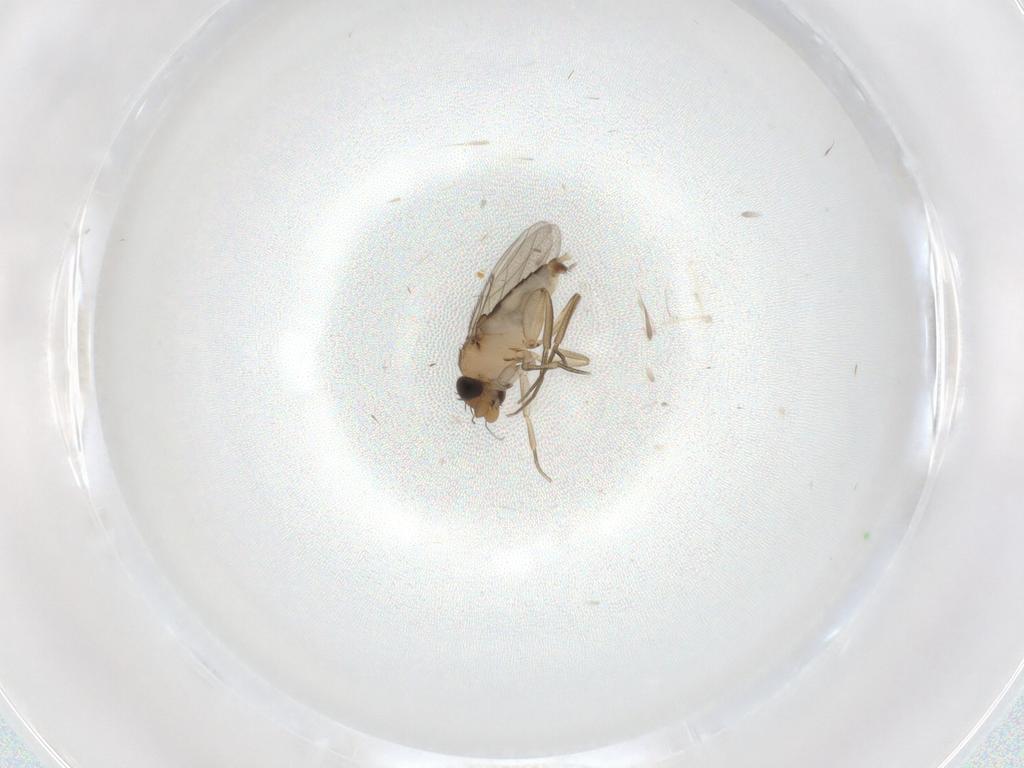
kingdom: Animalia
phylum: Arthropoda
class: Insecta
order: Diptera
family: Phoridae
